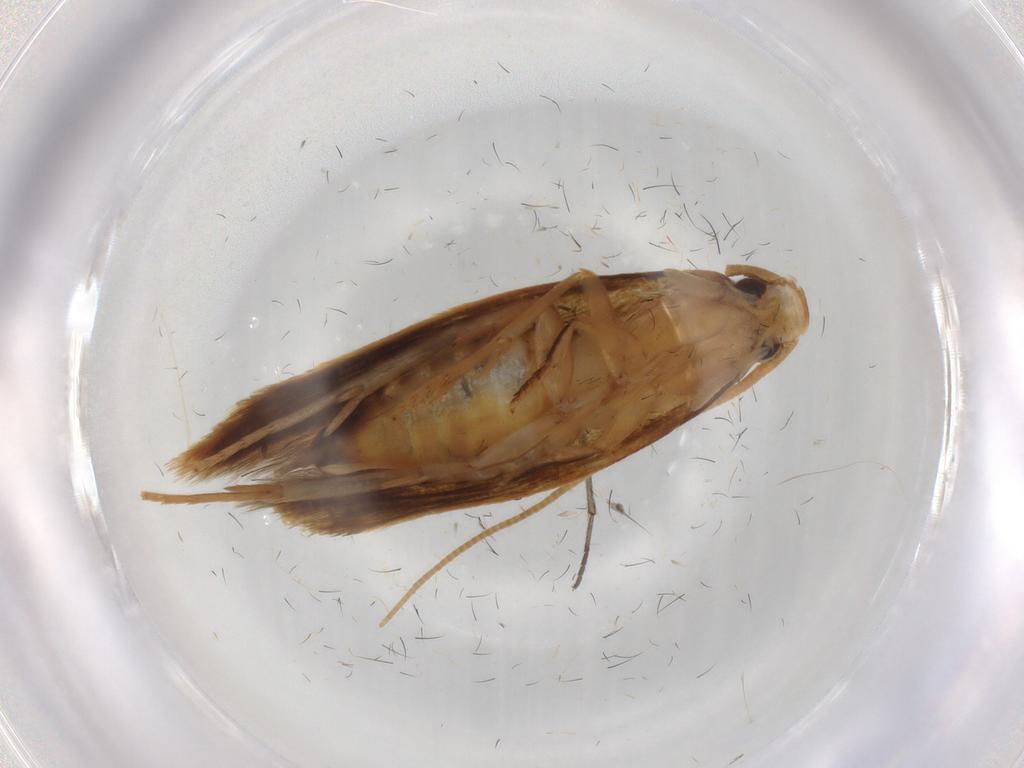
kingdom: Animalia
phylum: Arthropoda
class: Insecta
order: Lepidoptera
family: Tineidae
